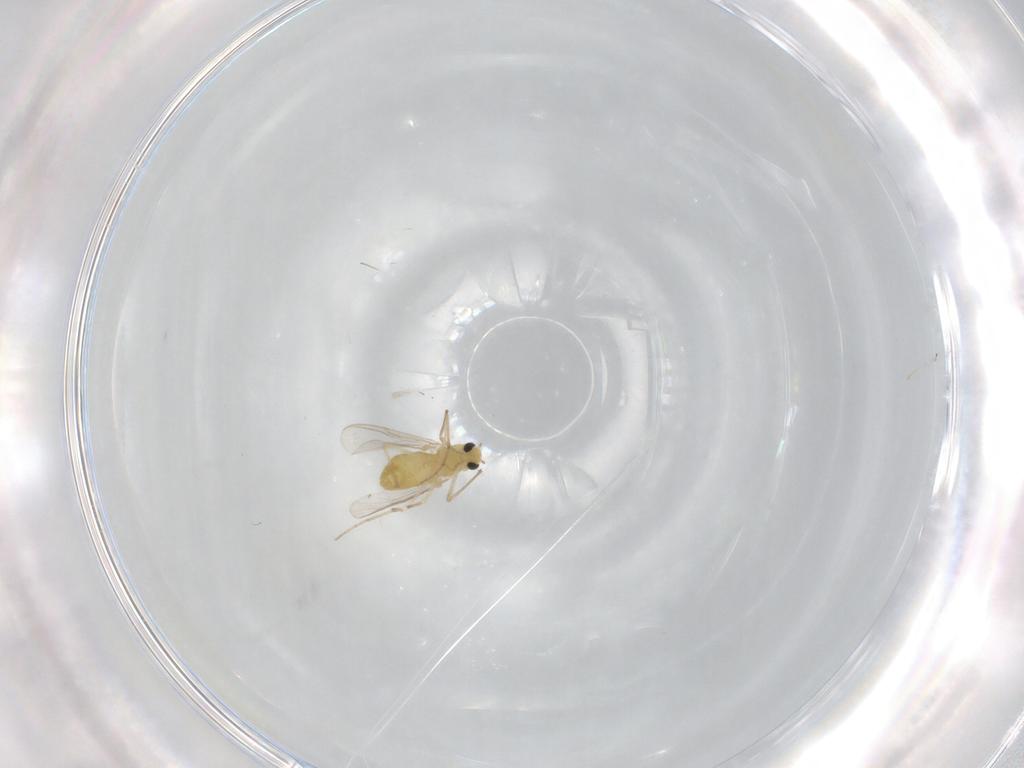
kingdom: Animalia
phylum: Arthropoda
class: Insecta
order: Diptera
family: Chironomidae
